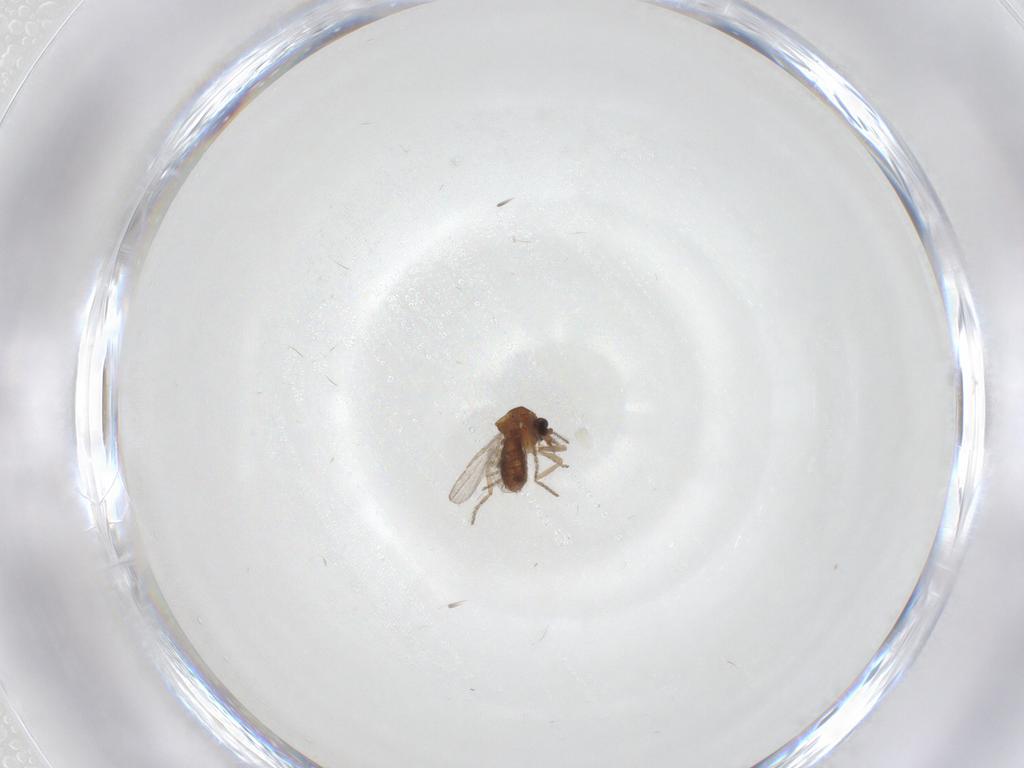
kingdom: Animalia
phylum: Arthropoda
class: Insecta
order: Diptera
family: Ceratopogonidae
